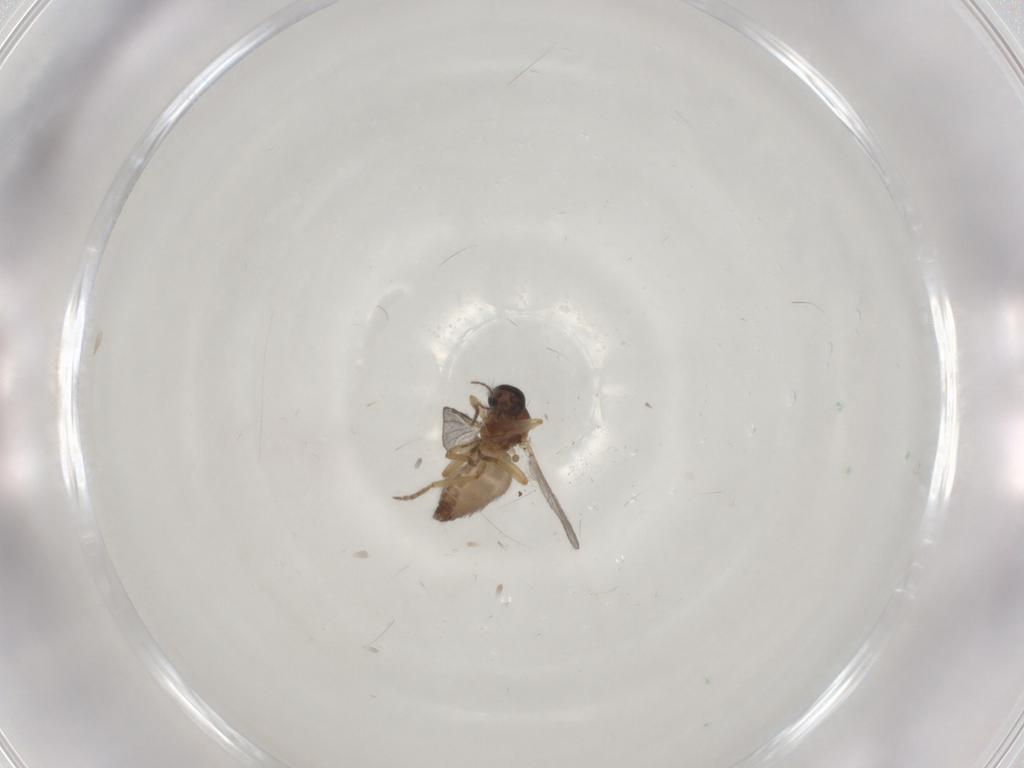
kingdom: Animalia
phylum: Arthropoda
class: Insecta
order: Diptera
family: Ceratopogonidae
